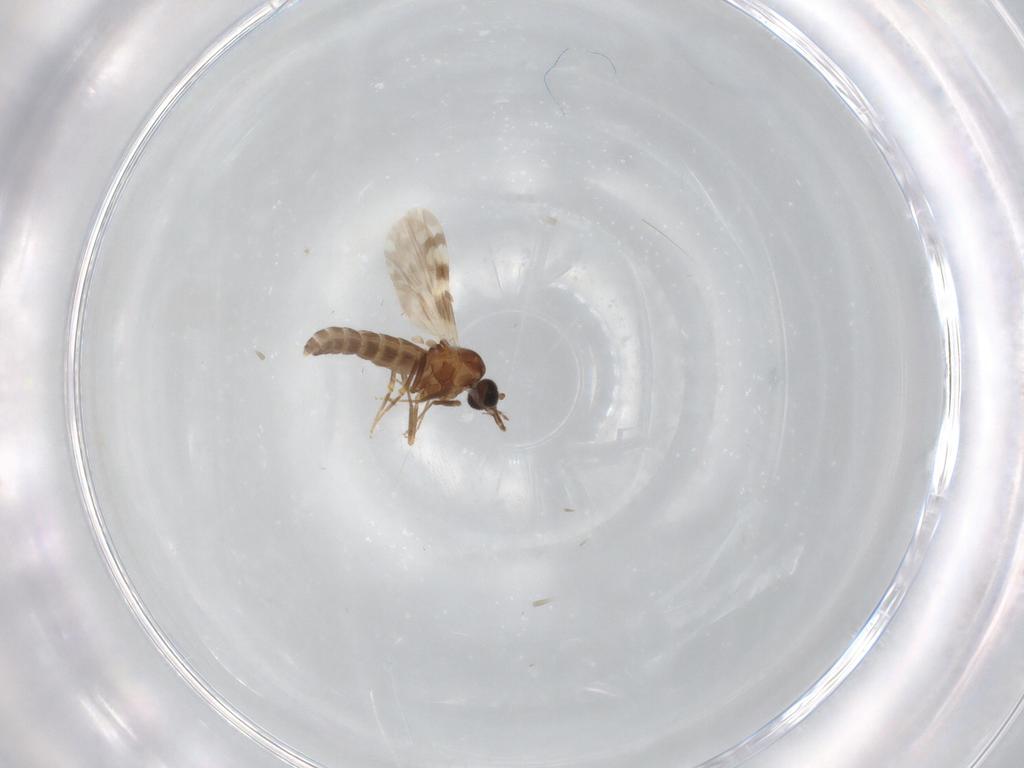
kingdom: Animalia
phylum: Arthropoda
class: Insecta
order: Diptera
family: Ceratopogonidae
